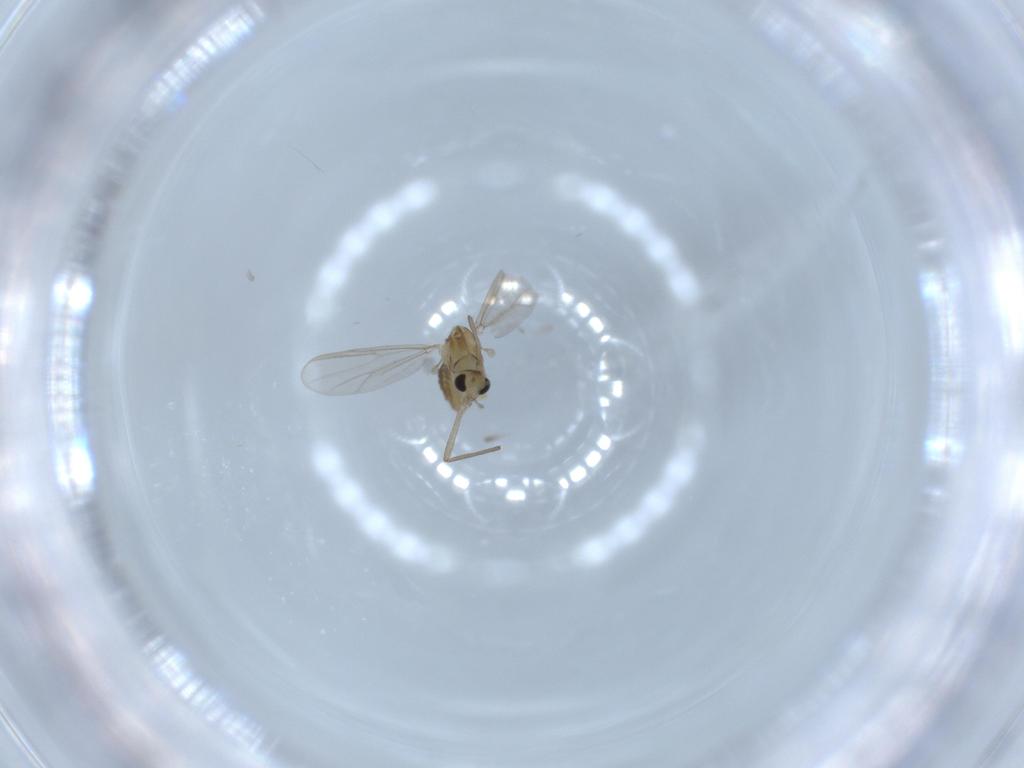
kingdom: Animalia
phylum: Arthropoda
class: Insecta
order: Diptera
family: Chironomidae
